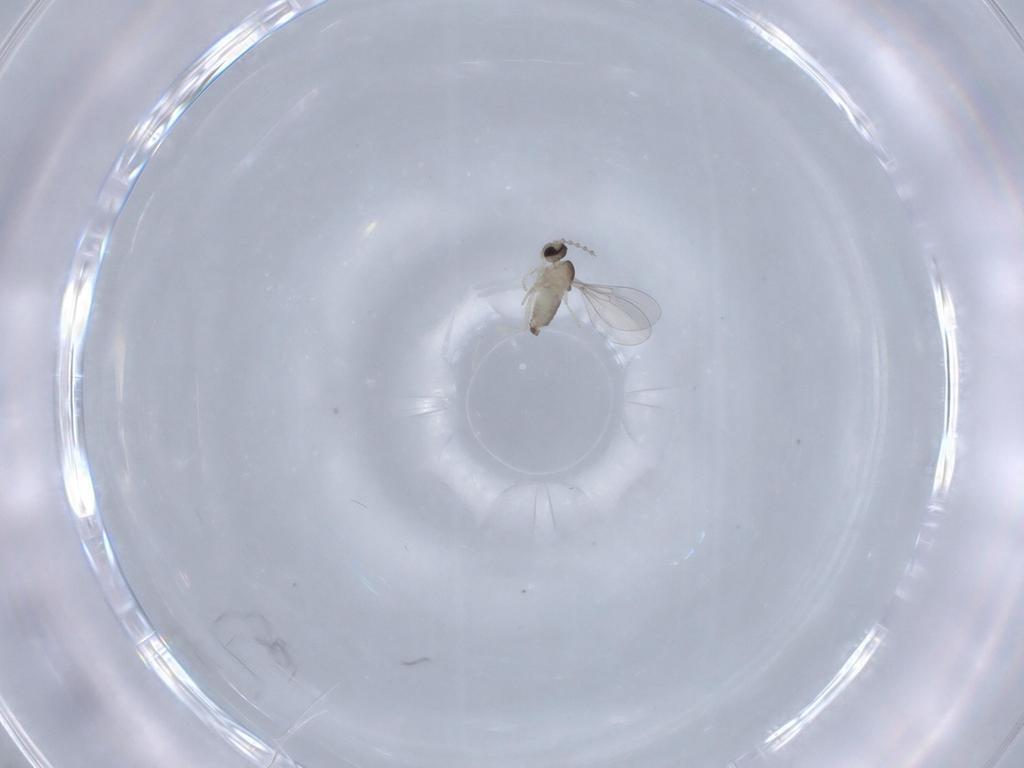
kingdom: Animalia
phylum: Arthropoda
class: Insecta
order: Diptera
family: Cecidomyiidae
